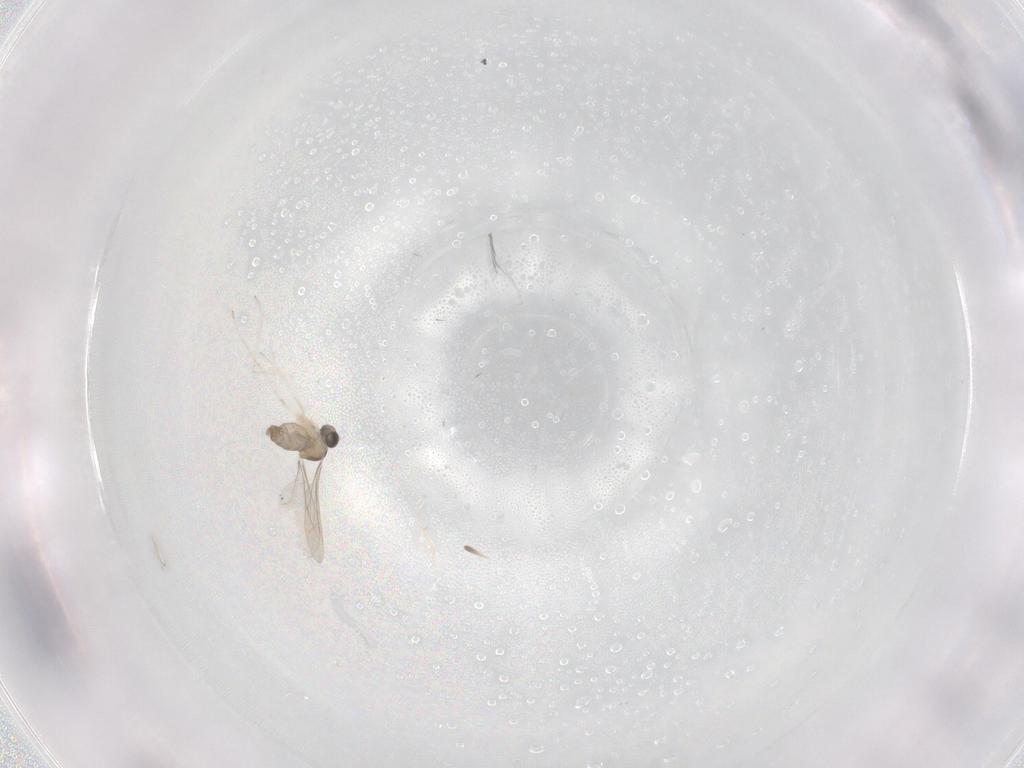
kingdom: Animalia
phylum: Arthropoda
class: Insecta
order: Diptera
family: Cecidomyiidae
